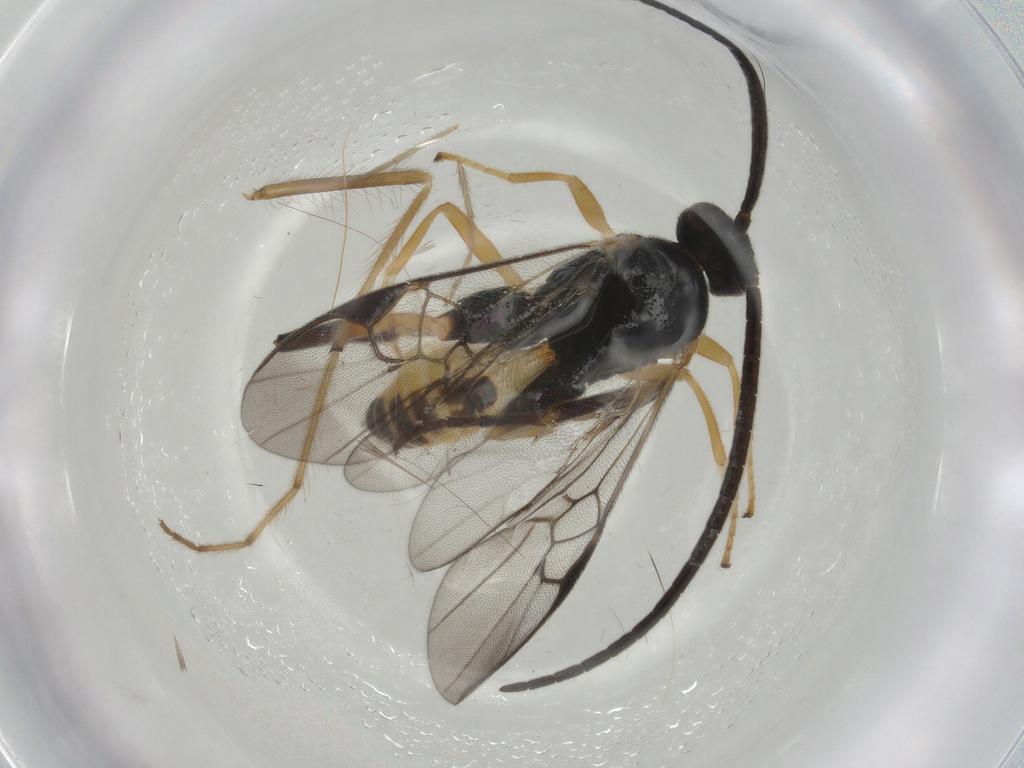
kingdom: Animalia
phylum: Arthropoda
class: Insecta
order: Hymenoptera
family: Braconidae
